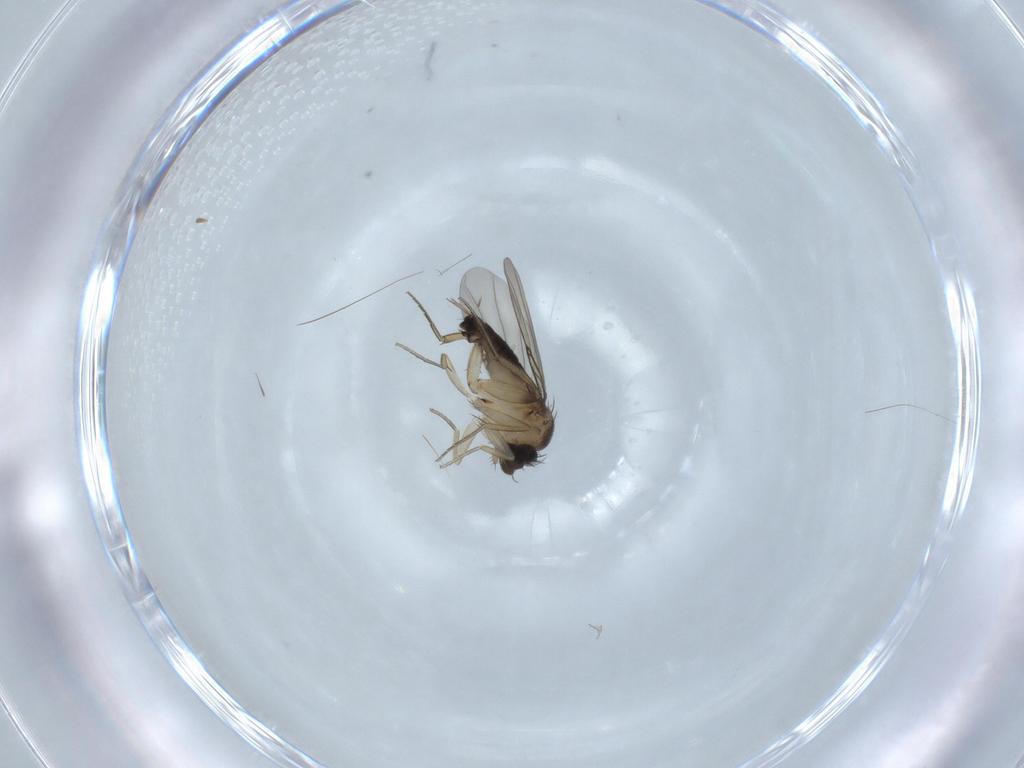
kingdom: Animalia
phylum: Arthropoda
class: Insecta
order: Diptera
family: Phoridae
